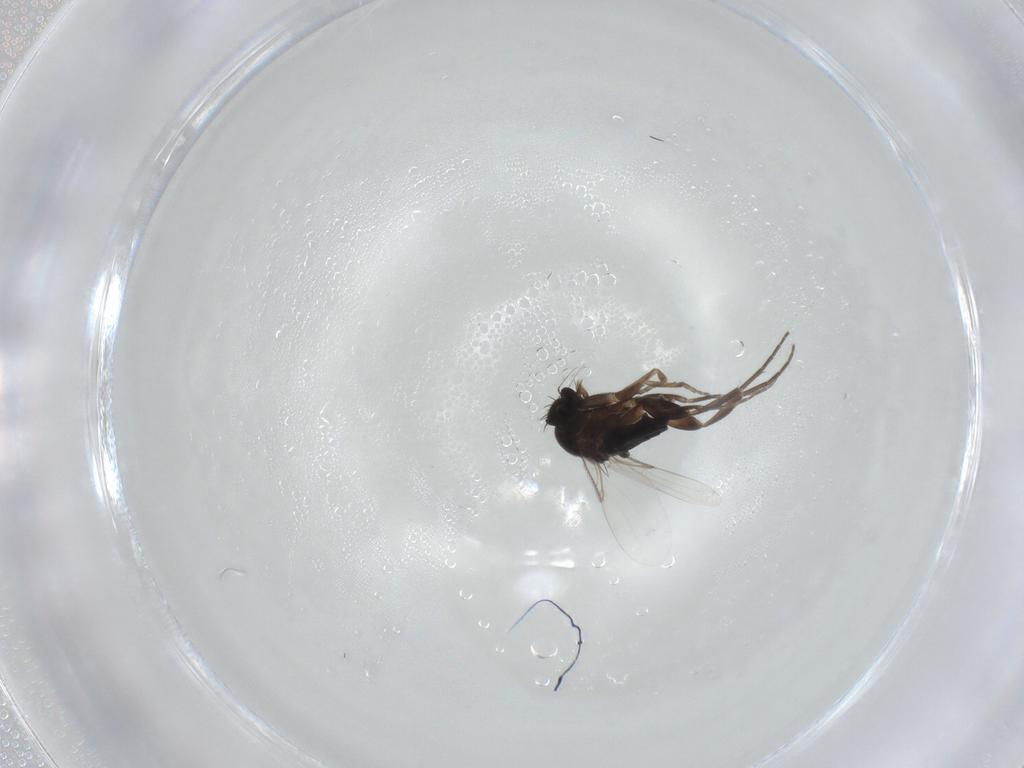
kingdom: Animalia
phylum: Arthropoda
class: Insecta
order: Diptera
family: Phoridae
